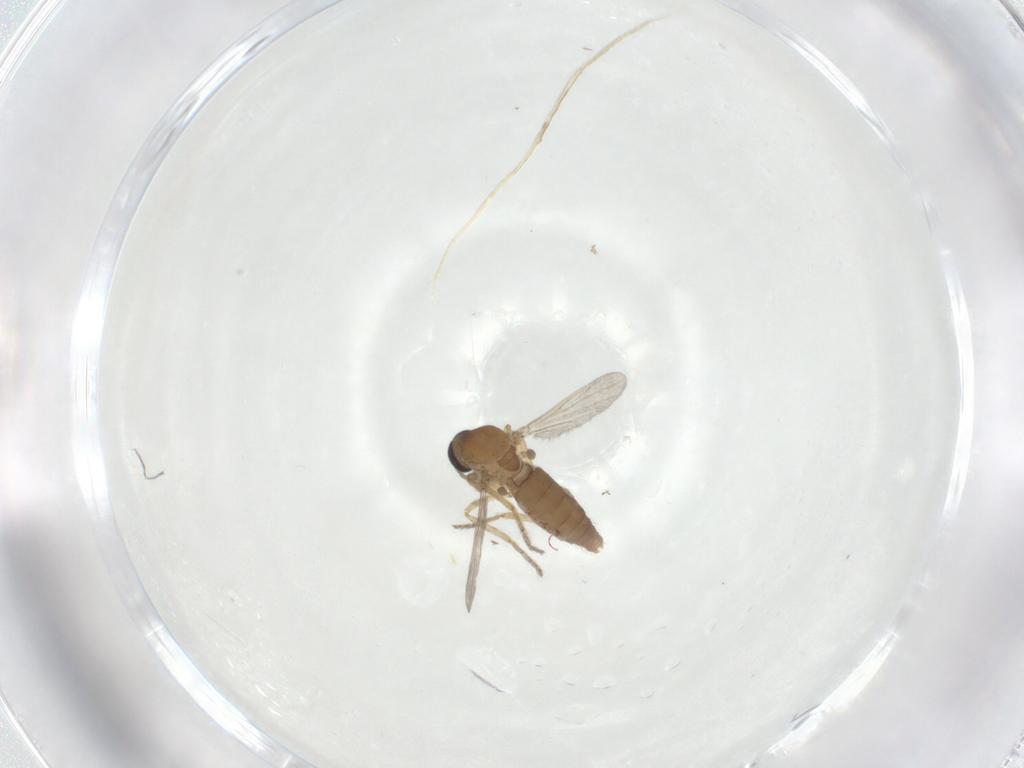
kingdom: Animalia
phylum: Arthropoda
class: Insecta
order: Diptera
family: Ceratopogonidae
